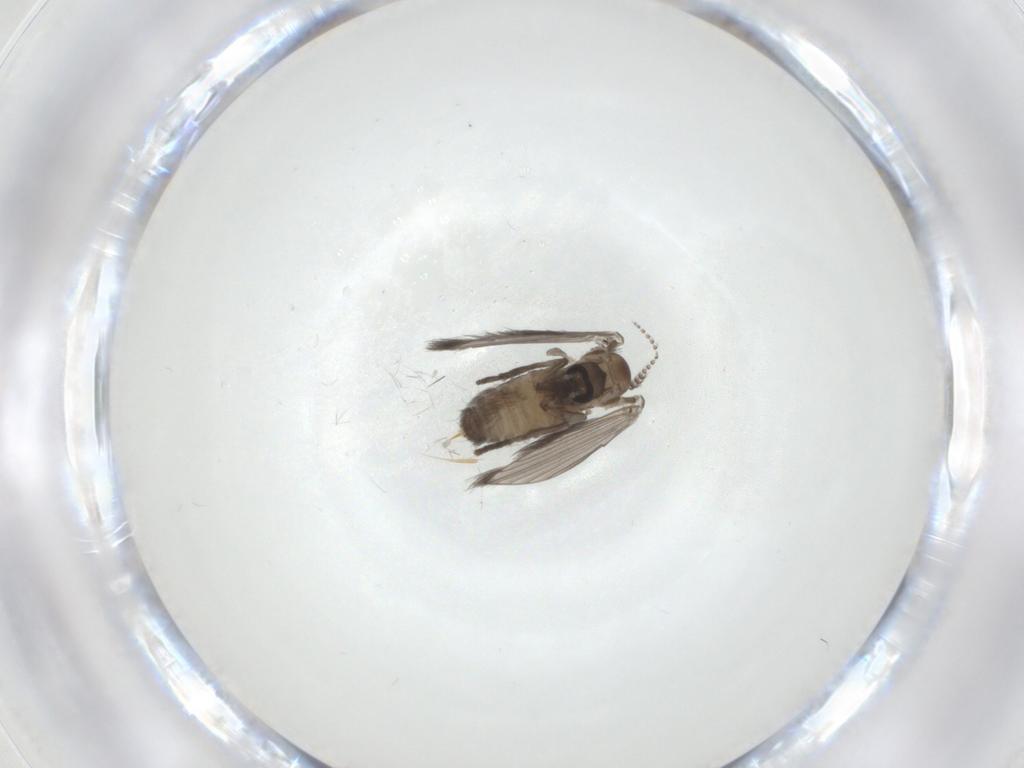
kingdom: Animalia
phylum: Arthropoda
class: Insecta
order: Diptera
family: Psychodidae
